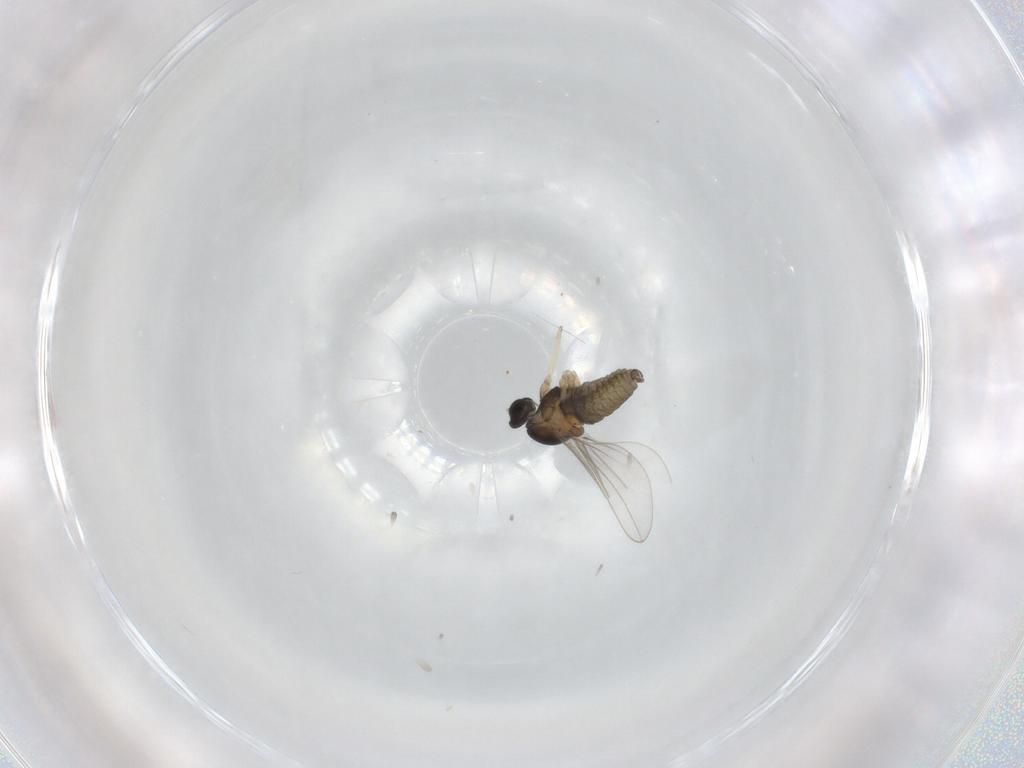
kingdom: Animalia
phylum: Arthropoda
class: Insecta
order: Diptera
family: Cecidomyiidae
